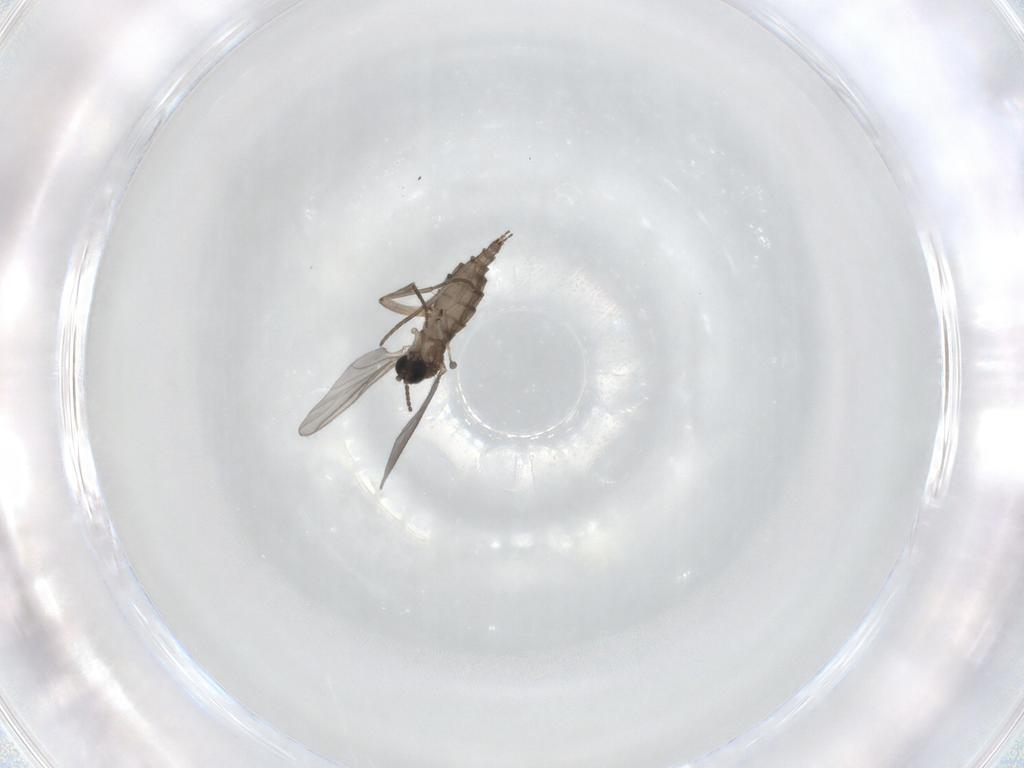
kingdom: Animalia
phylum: Arthropoda
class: Insecta
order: Diptera
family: Sciaridae
